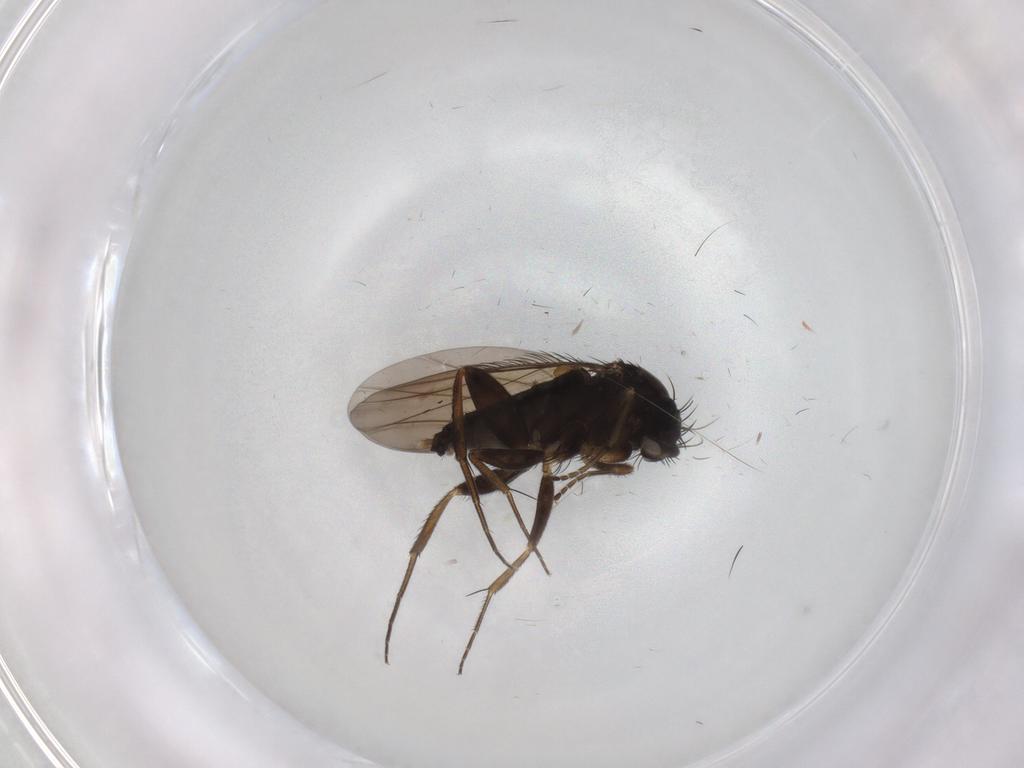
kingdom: Animalia
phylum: Arthropoda
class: Insecta
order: Diptera
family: Phoridae
